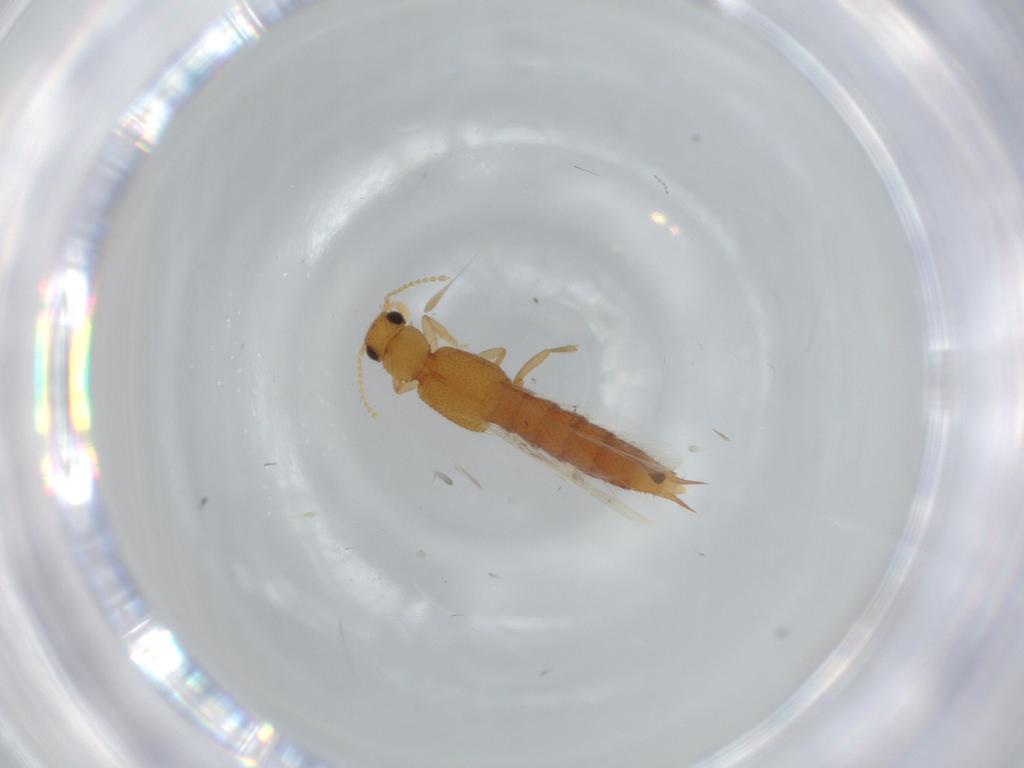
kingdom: Animalia
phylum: Arthropoda
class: Insecta
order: Coleoptera
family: Staphylinidae
